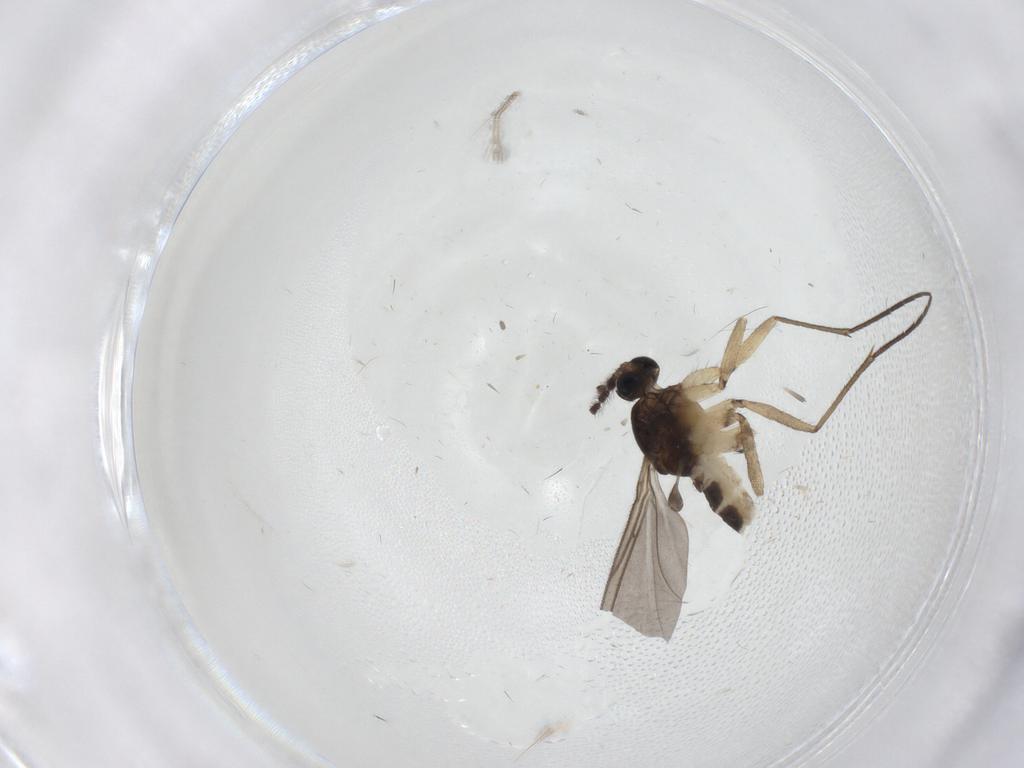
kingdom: Animalia
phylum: Arthropoda
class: Insecta
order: Diptera
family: Sciaridae
